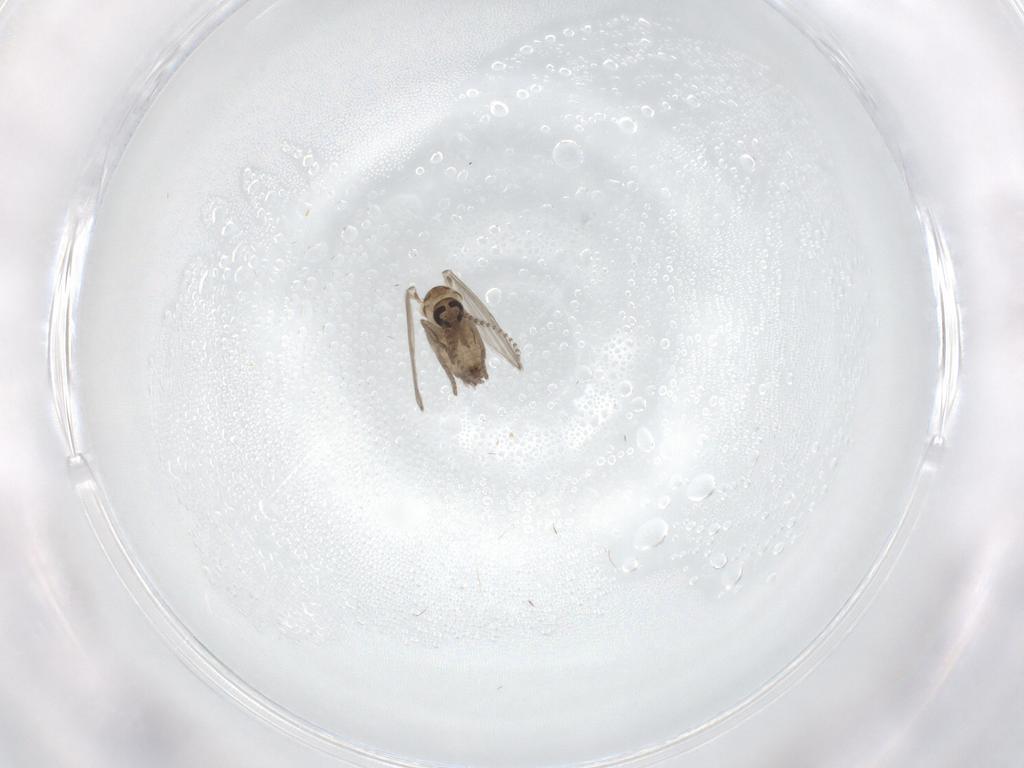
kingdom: Animalia
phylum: Arthropoda
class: Insecta
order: Diptera
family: Psychodidae
